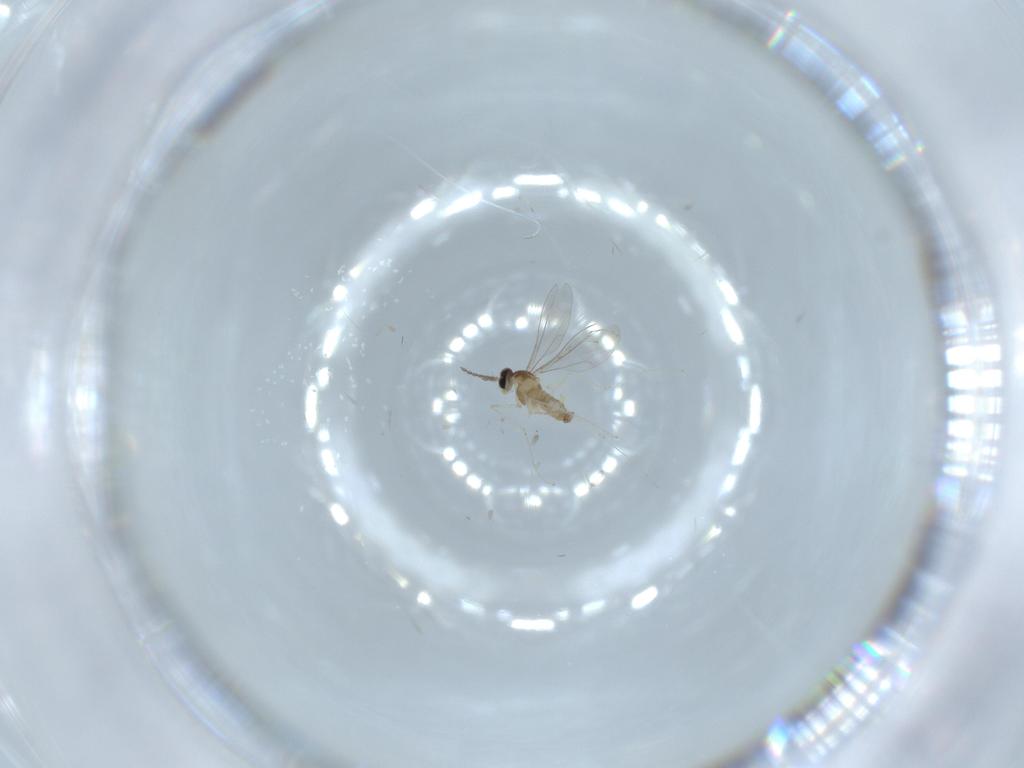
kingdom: Animalia
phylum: Arthropoda
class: Insecta
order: Diptera
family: Cecidomyiidae
